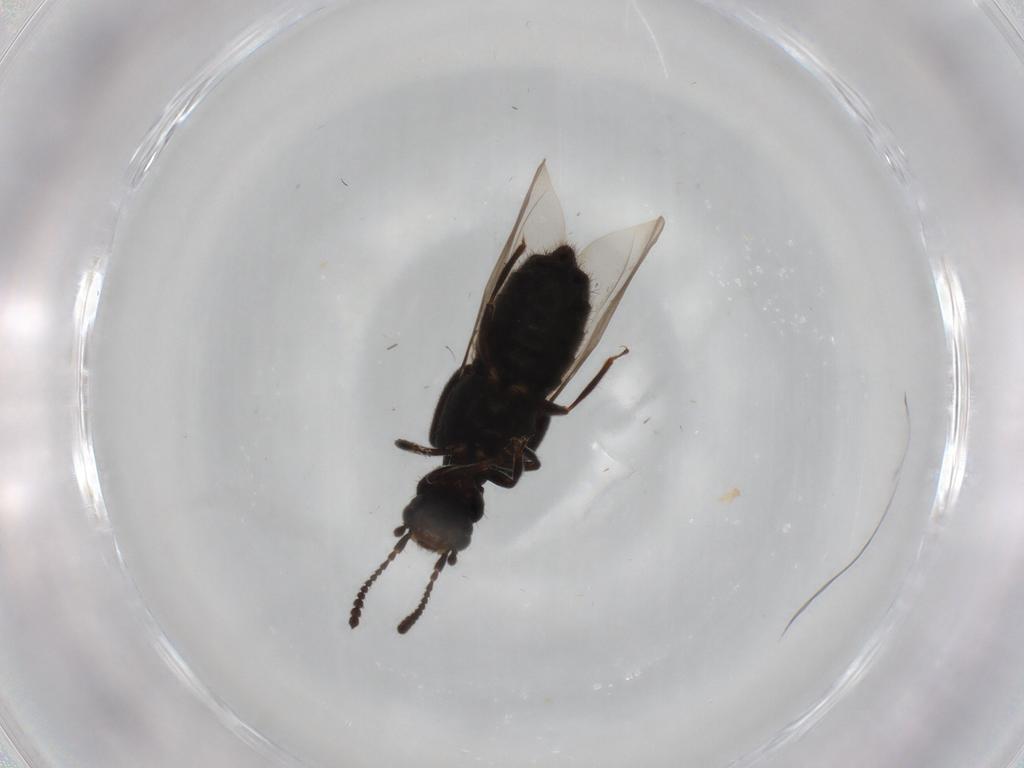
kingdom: Animalia
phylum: Arthropoda
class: Insecta
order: Coleoptera
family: Staphylinidae
